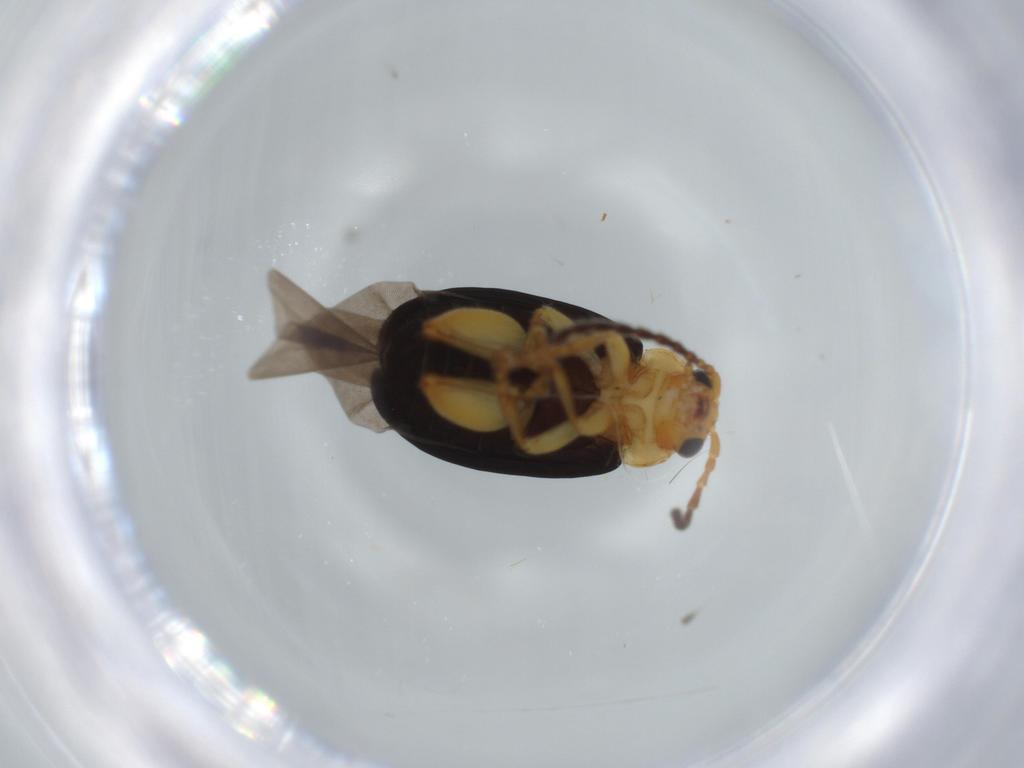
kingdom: Animalia
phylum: Arthropoda
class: Insecta
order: Coleoptera
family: Chrysomelidae
